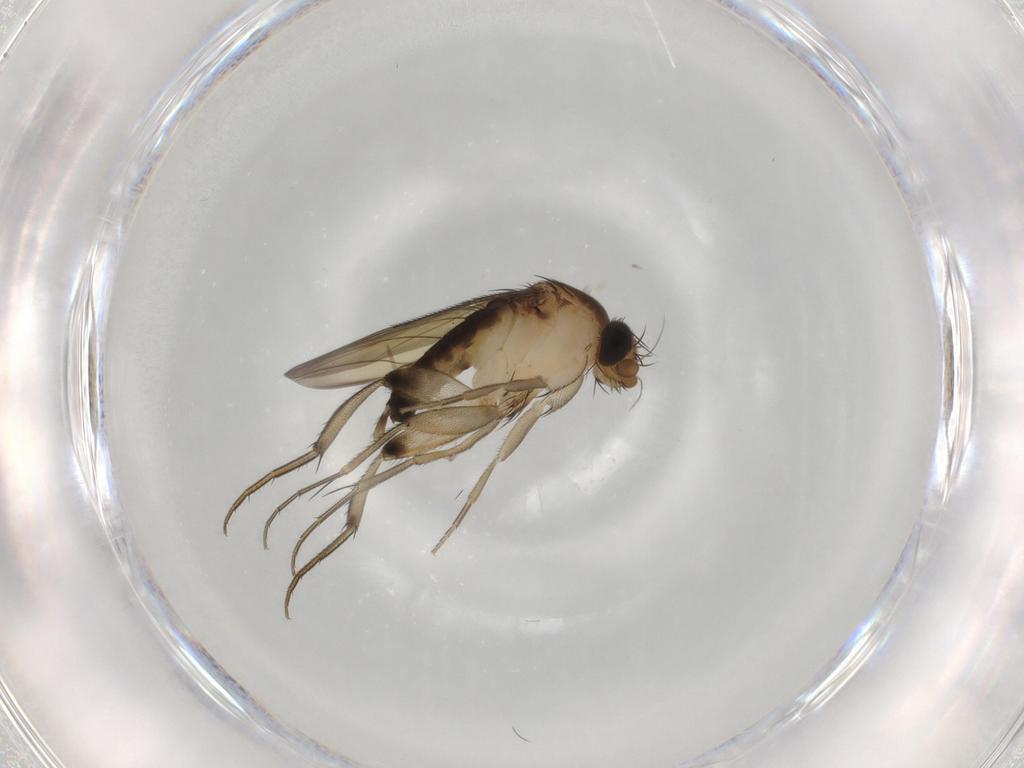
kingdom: Animalia
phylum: Arthropoda
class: Insecta
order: Diptera
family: Phoridae
